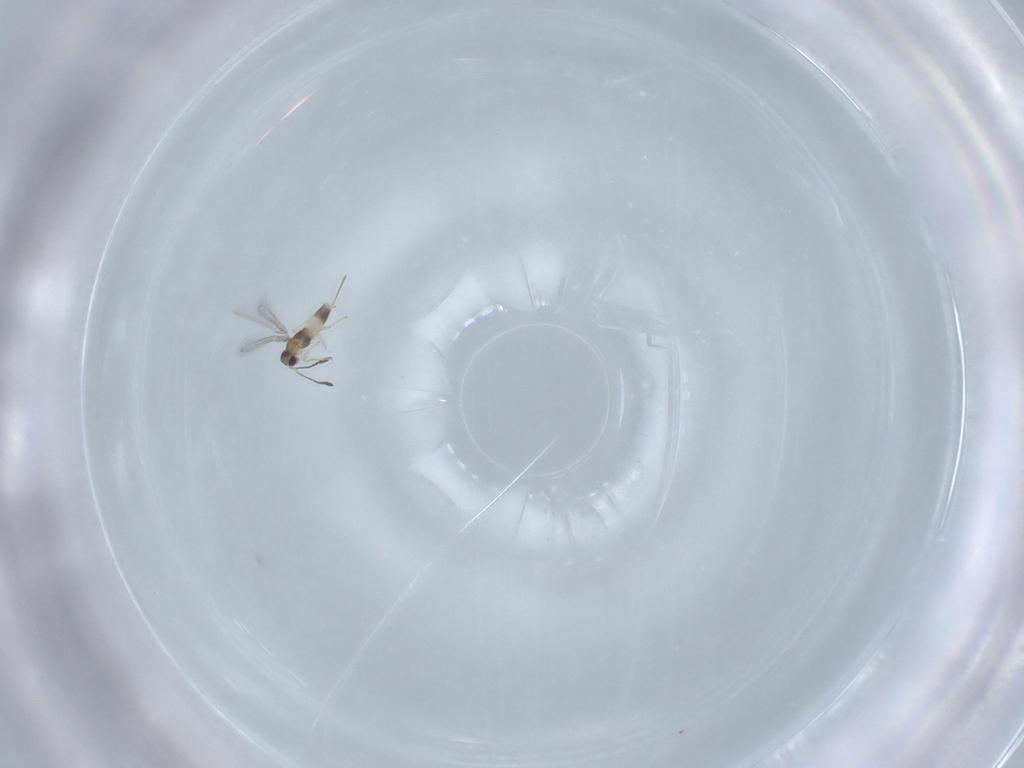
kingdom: Animalia
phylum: Arthropoda
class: Insecta
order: Hymenoptera
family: Mymaridae
